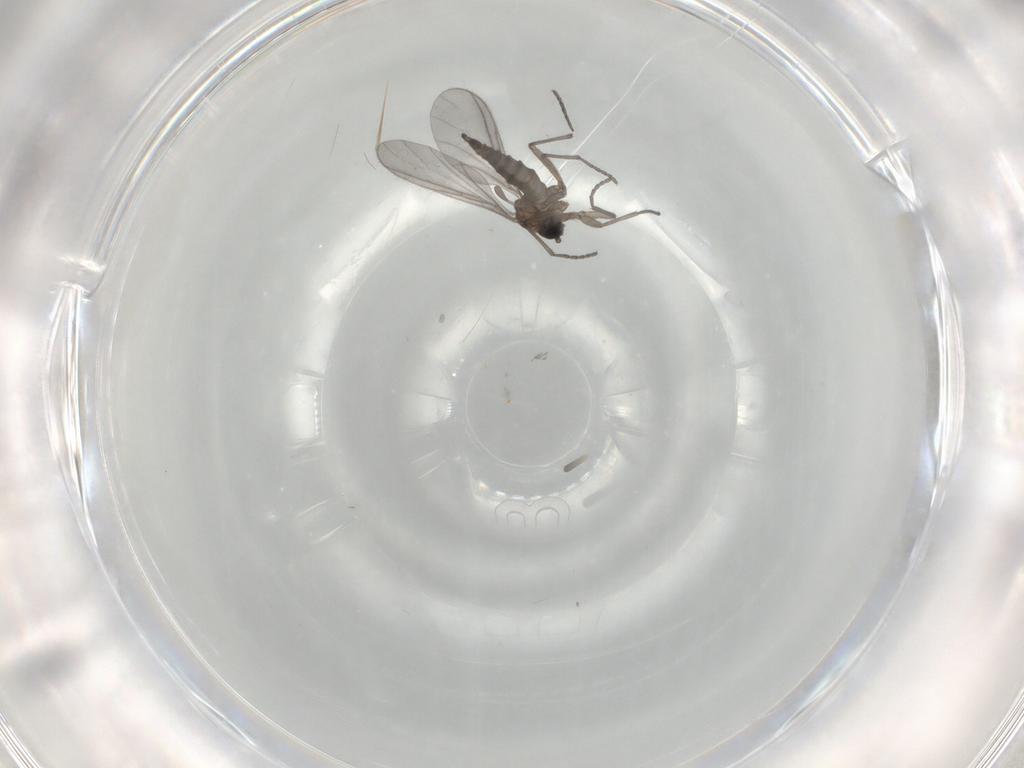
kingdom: Animalia
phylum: Arthropoda
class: Insecta
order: Diptera
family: Sciaridae
